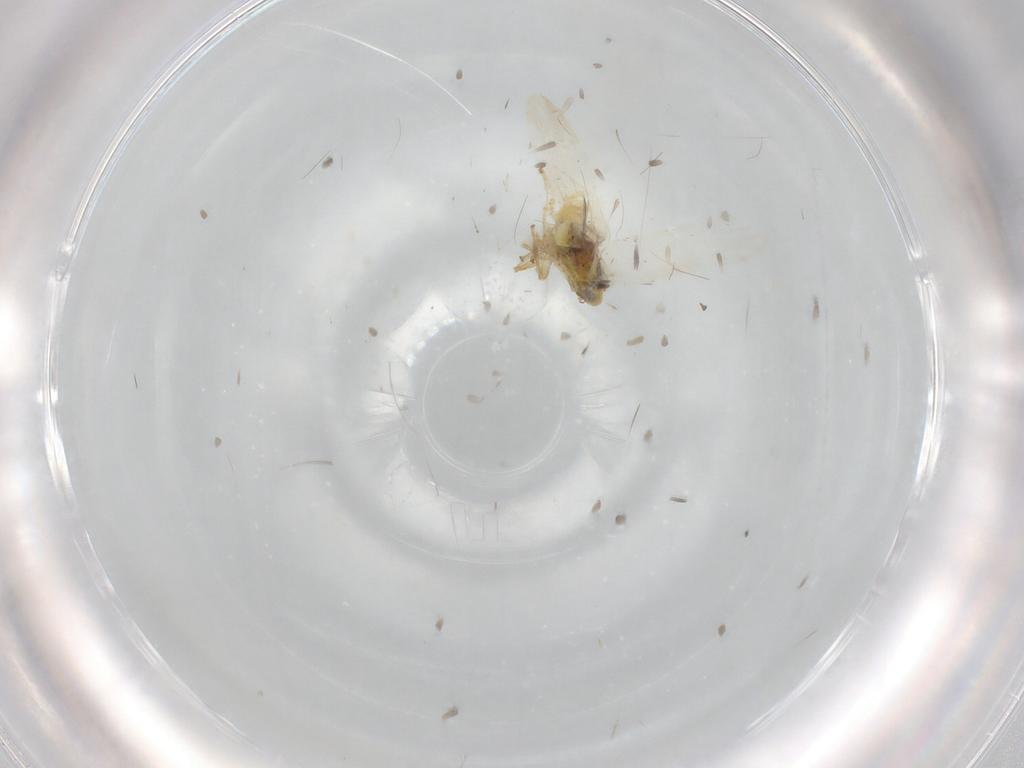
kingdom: Animalia
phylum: Arthropoda
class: Insecta
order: Hemiptera
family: Cicadellidae
